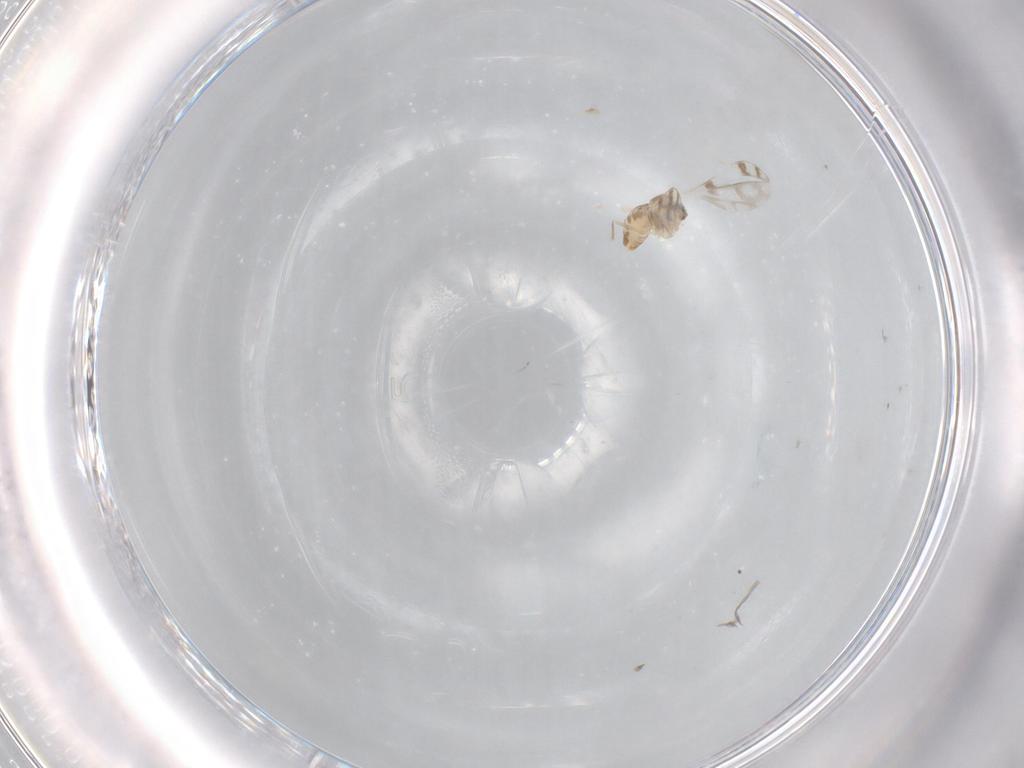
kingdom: Animalia
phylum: Arthropoda
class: Insecta
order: Diptera
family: Cecidomyiidae
